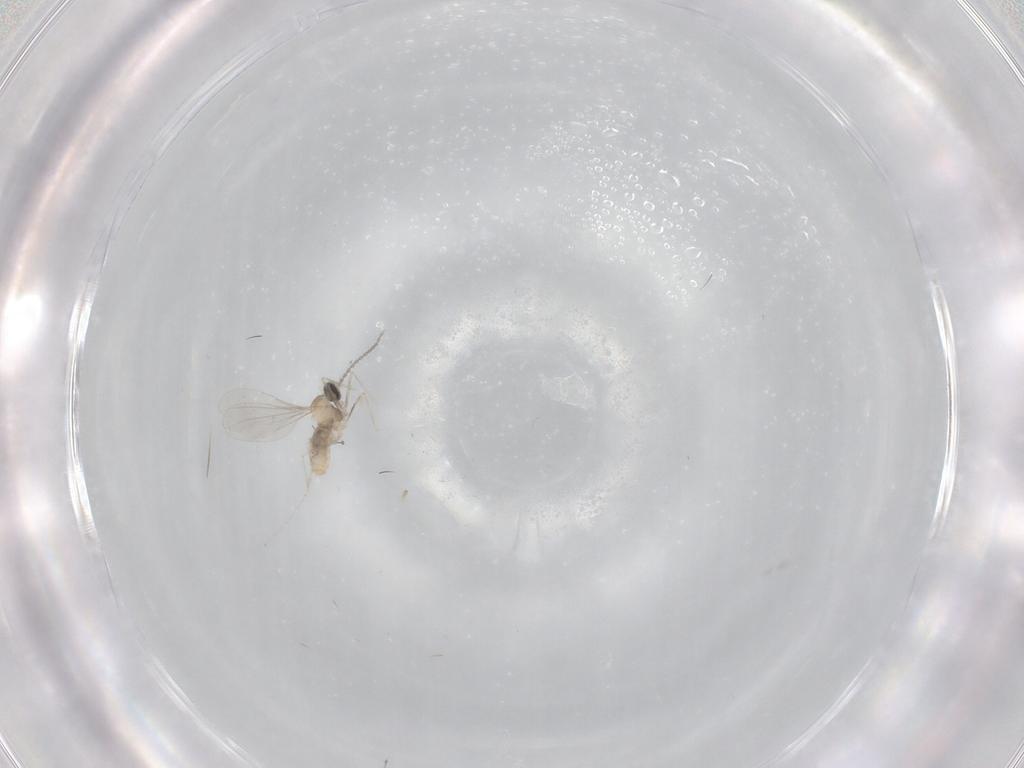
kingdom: Animalia
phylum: Arthropoda
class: Insecta
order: Diptera
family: Cecidomyiidae
